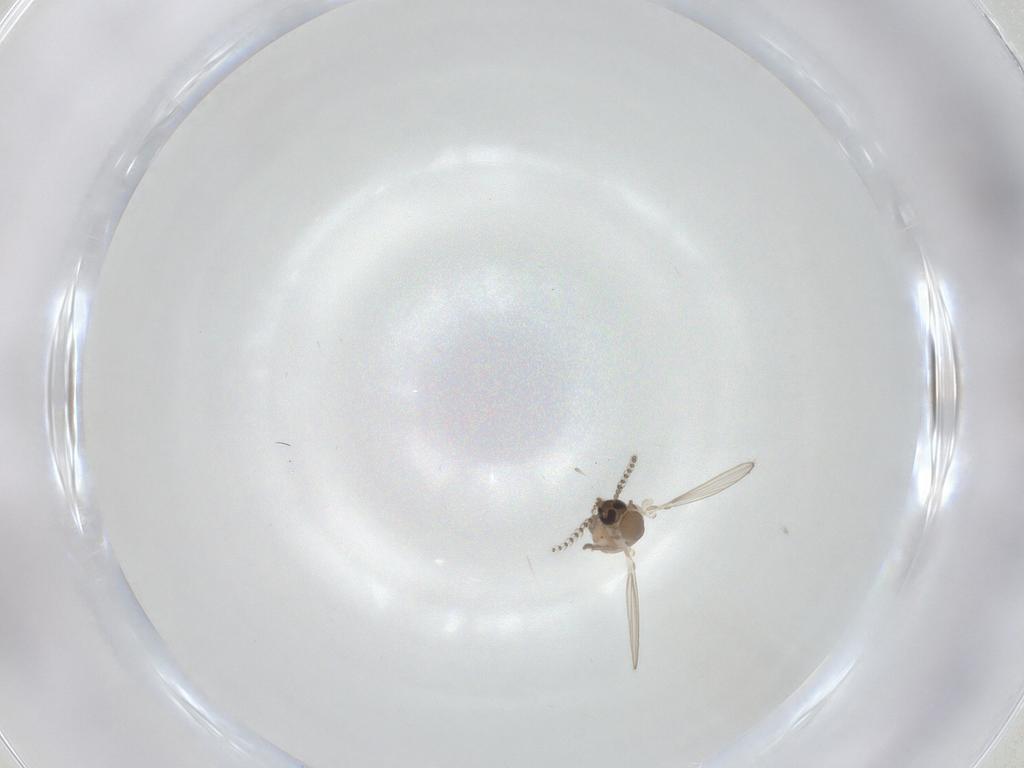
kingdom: Animalia
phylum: Arthropoda
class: Insecta
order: Diptera
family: Psychodidae
